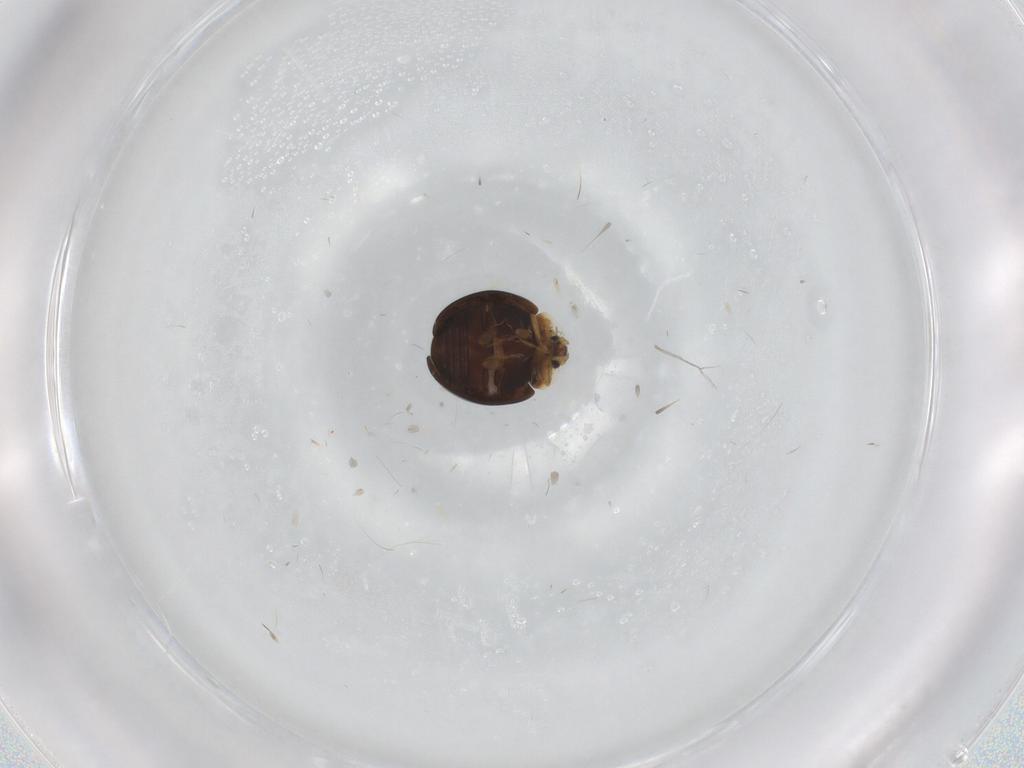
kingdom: Animalia
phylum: Arthropoda
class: Insecta
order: Coleoptera
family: Corylophidae
